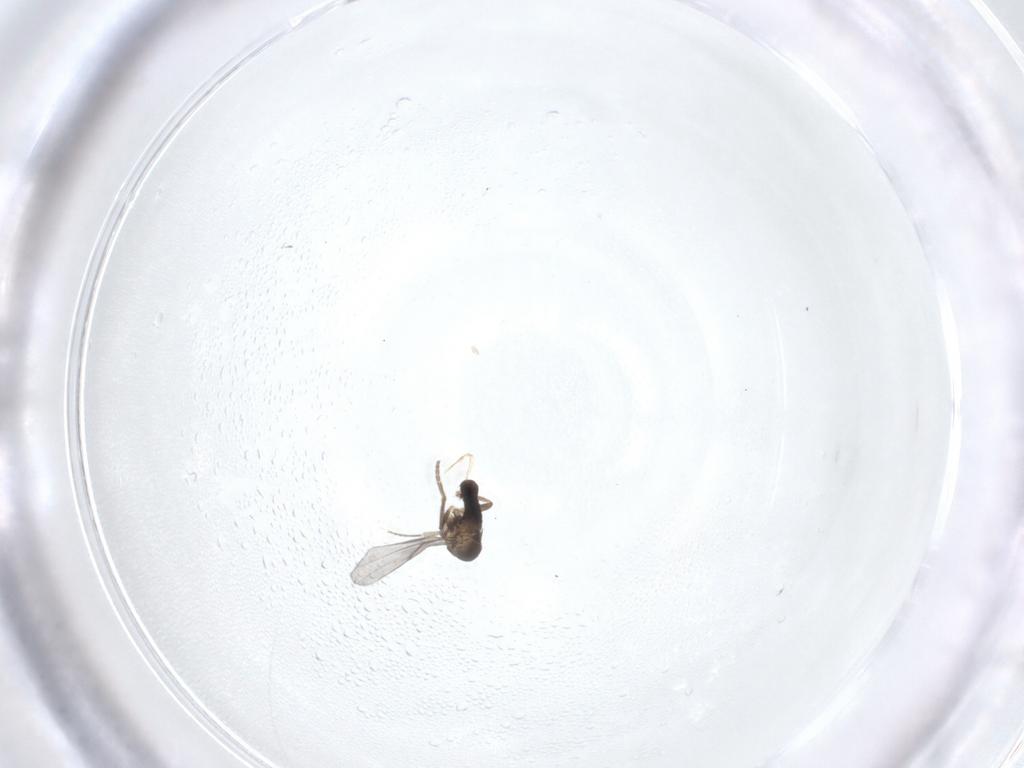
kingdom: Animalia
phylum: Arthropoda
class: Insecta
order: Diptera
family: Phoridae
